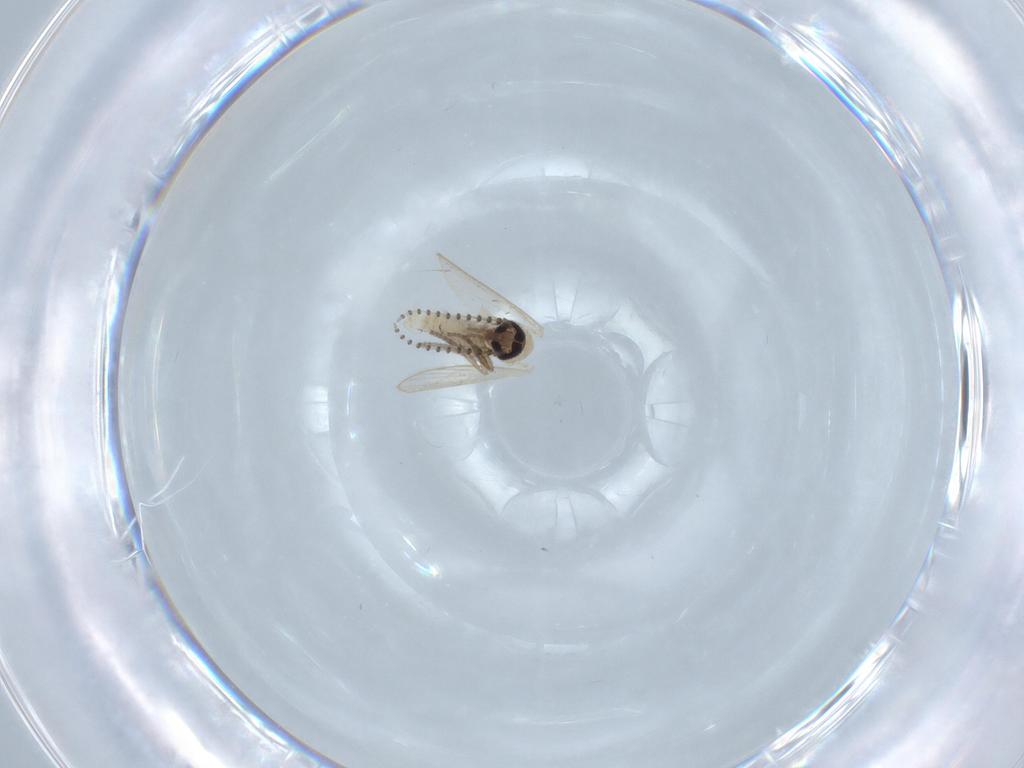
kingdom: Animalia
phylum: Arthropoda
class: Insecta
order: Diptera
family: Psychodidae
